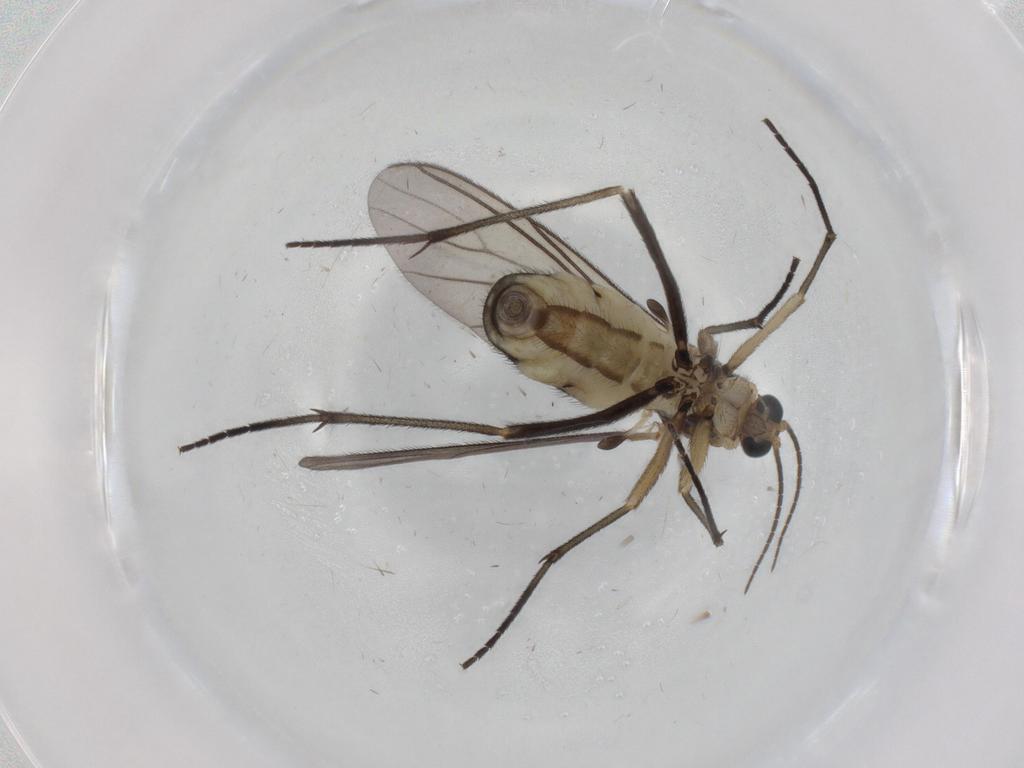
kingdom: Animalia
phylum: Arthropoda
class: Insecta
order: Diptera
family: Sciaridae
